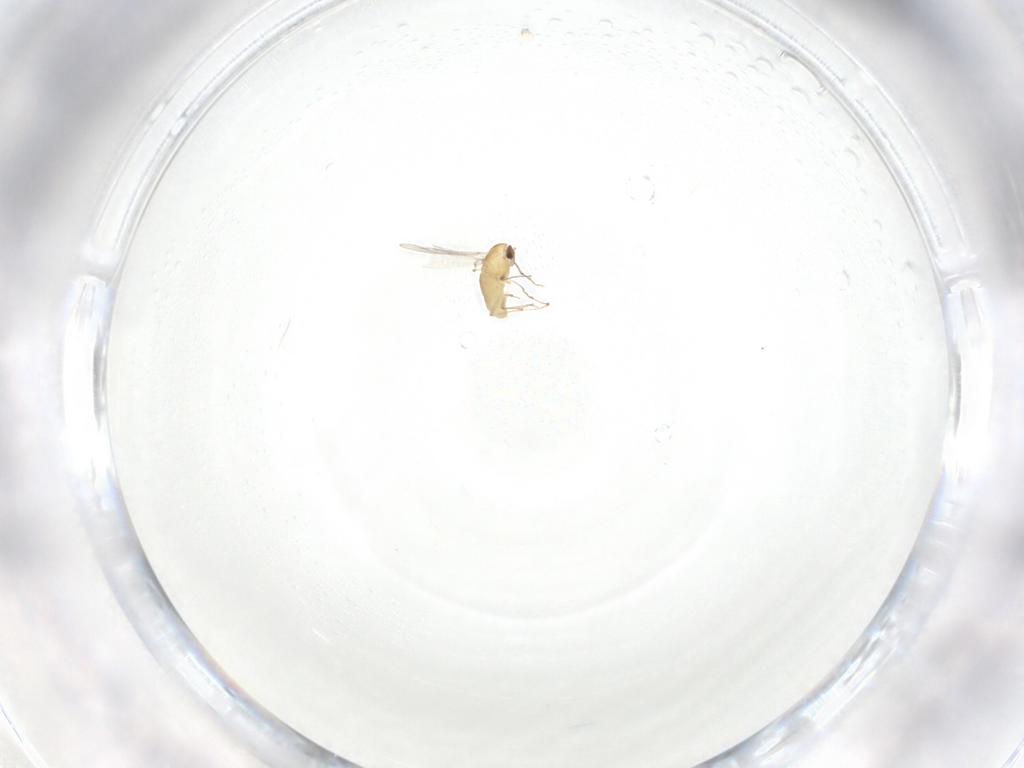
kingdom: Animalia
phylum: Arthropoda
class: Insecta
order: Diptera
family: Chironomidae
